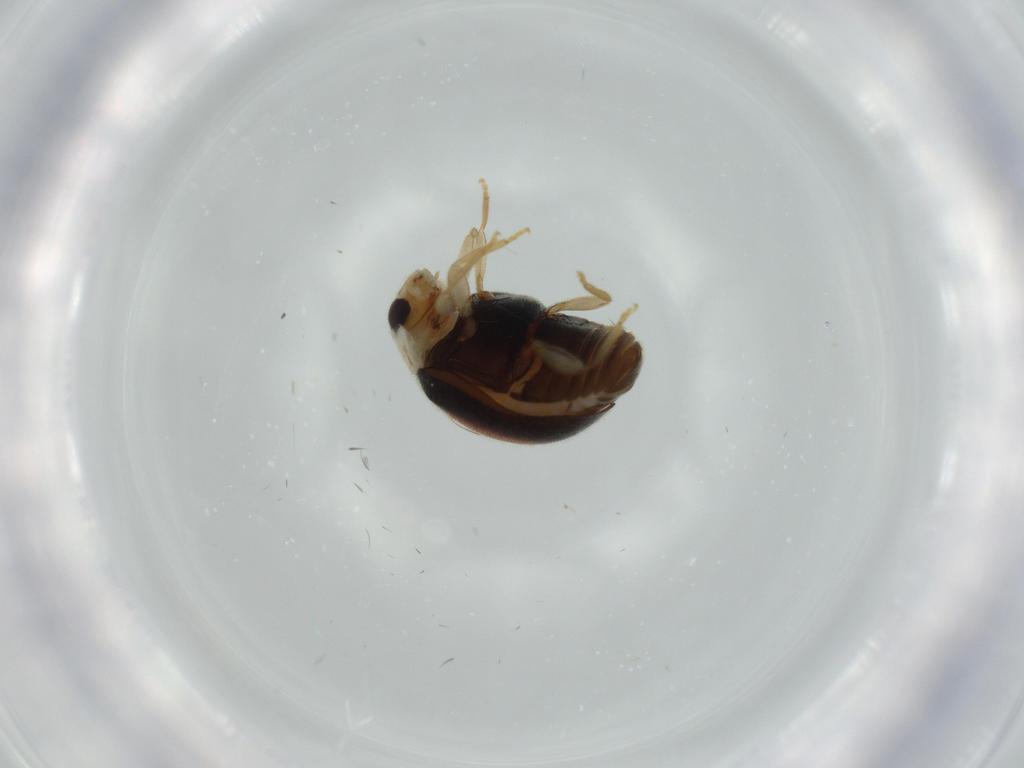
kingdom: Animalia
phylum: Arthropoda
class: Insecta
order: Coleoptera
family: Coccinellidae
